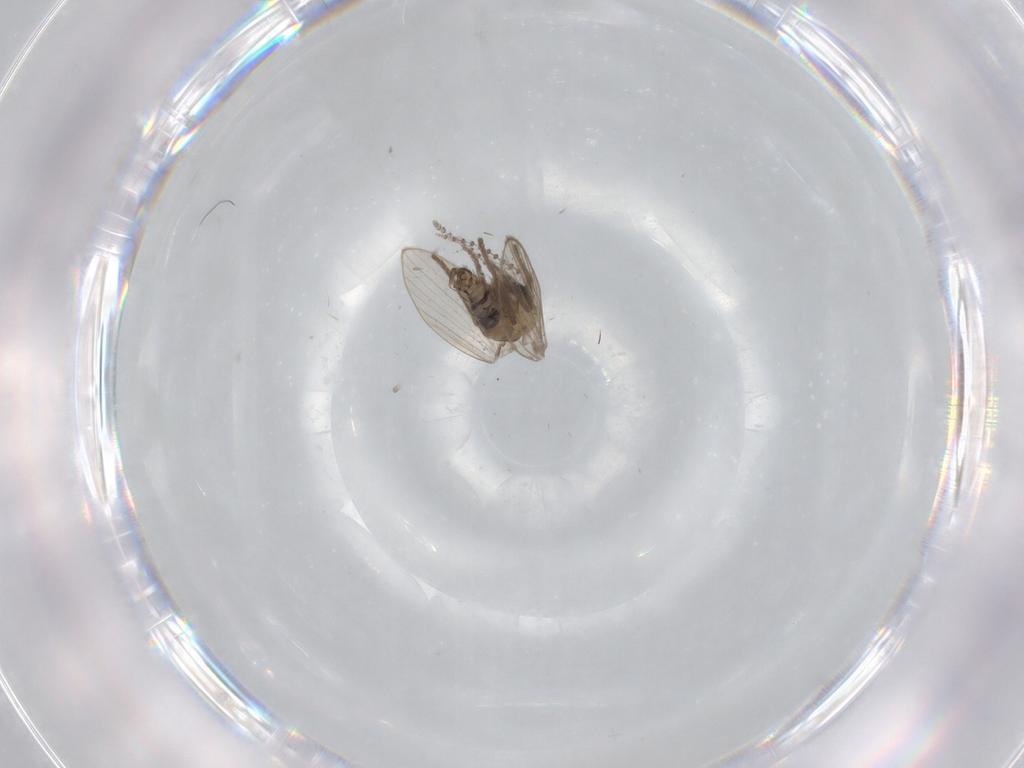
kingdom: Animalia
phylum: Arthropoda
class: Insecta
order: Diptera
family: Psychodidae
